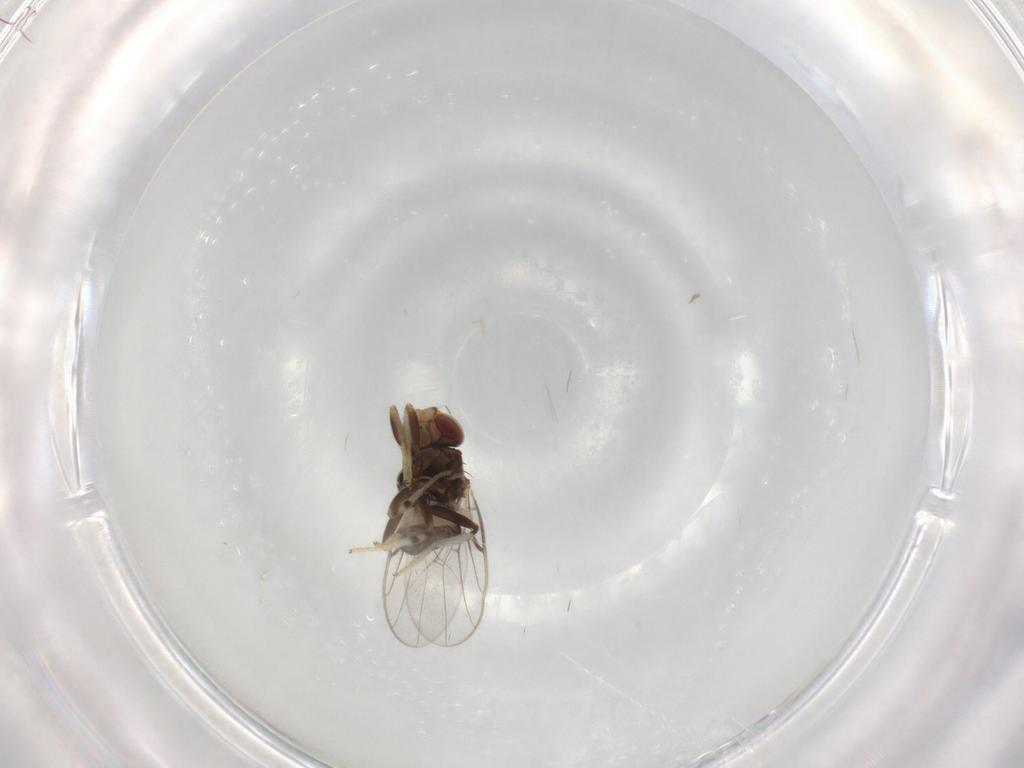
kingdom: Animalia
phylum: Arthropoda
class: Insecta
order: Diptera
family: Chloropidae
